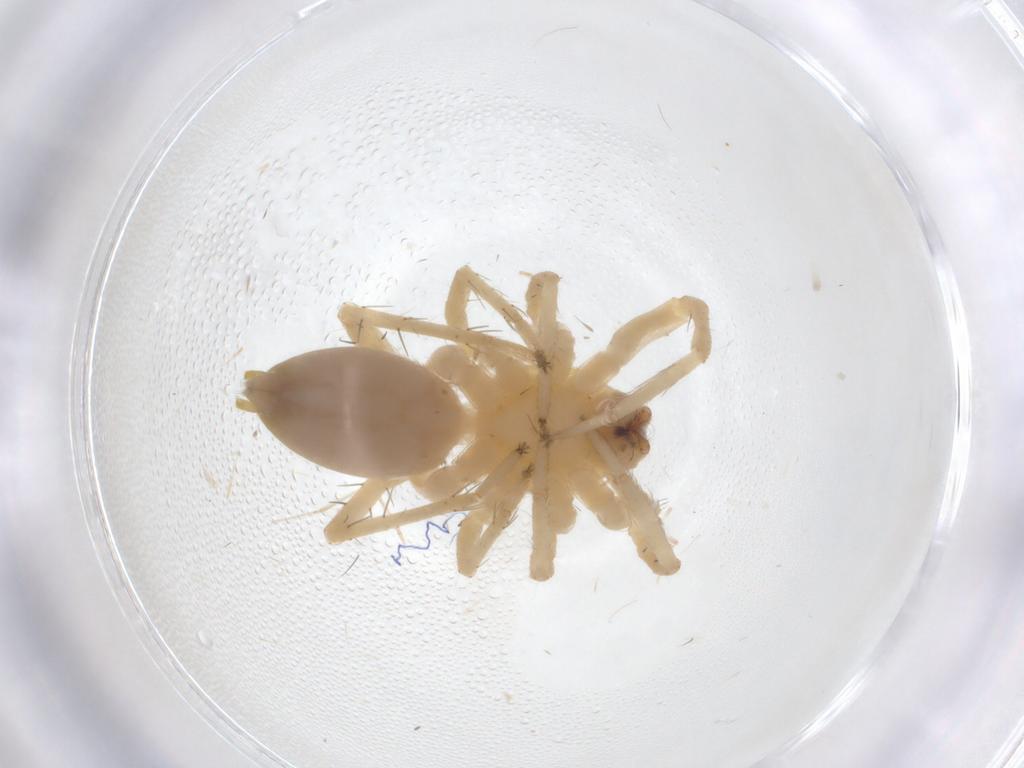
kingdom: Animalia
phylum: Arthropoda
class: Arachnida
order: Araneae
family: Anyphaenidae
